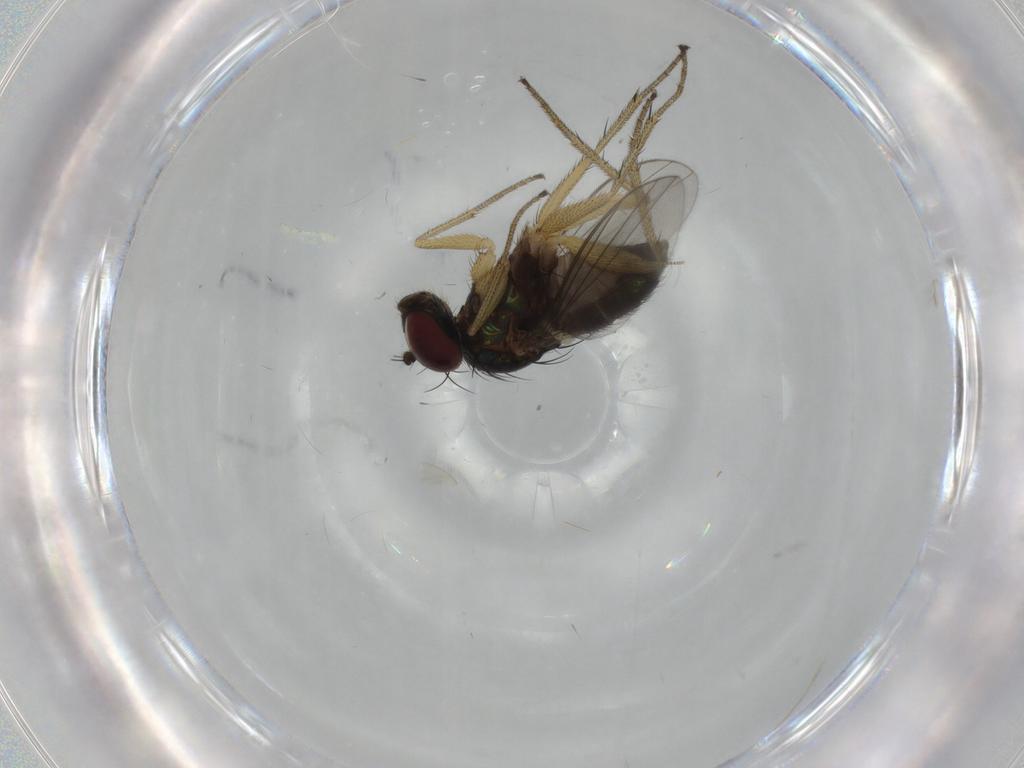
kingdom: Animalia
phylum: Arthropoda
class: Insecta
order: Diptera
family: Dolichopodidae
